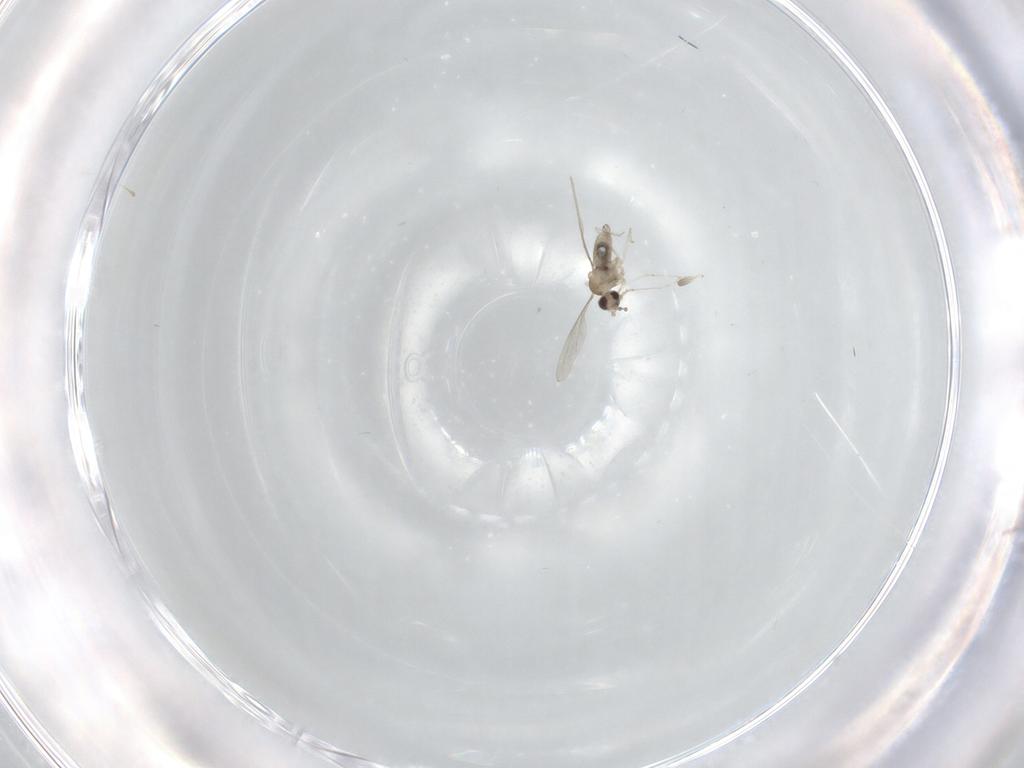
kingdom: Animalia
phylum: Arthropoda
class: Insecta
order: Diptera
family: Cecidomyiidae
